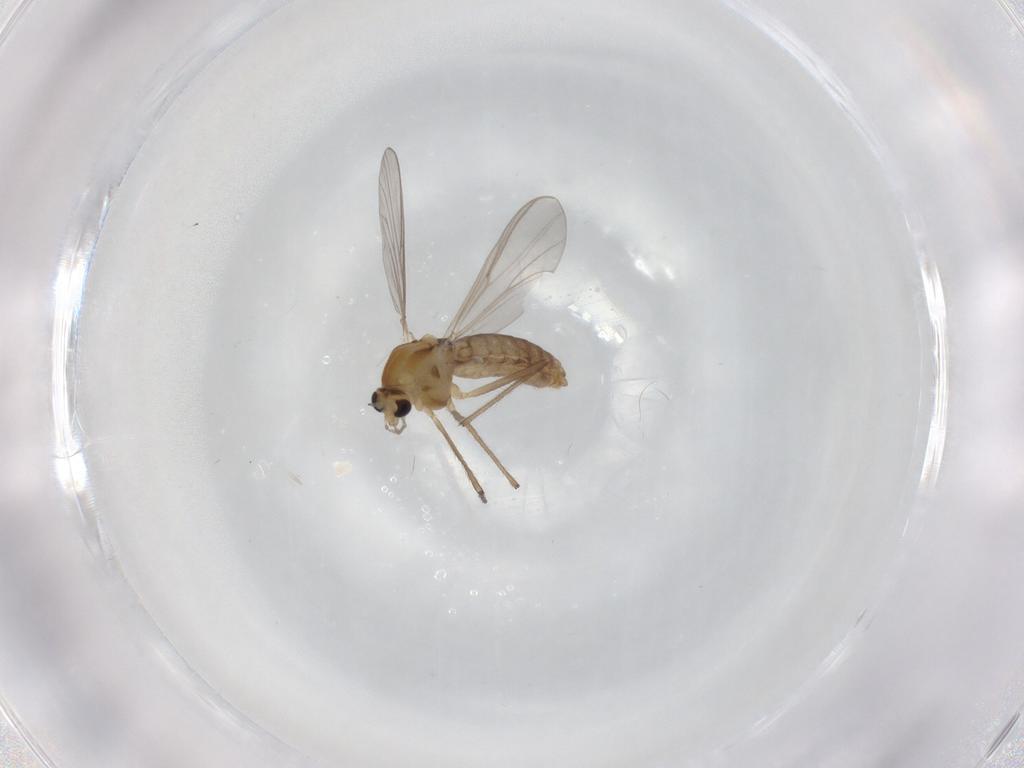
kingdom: Animalia
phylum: Arthropoda
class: Insecta
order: Diptera
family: Chironomidae
